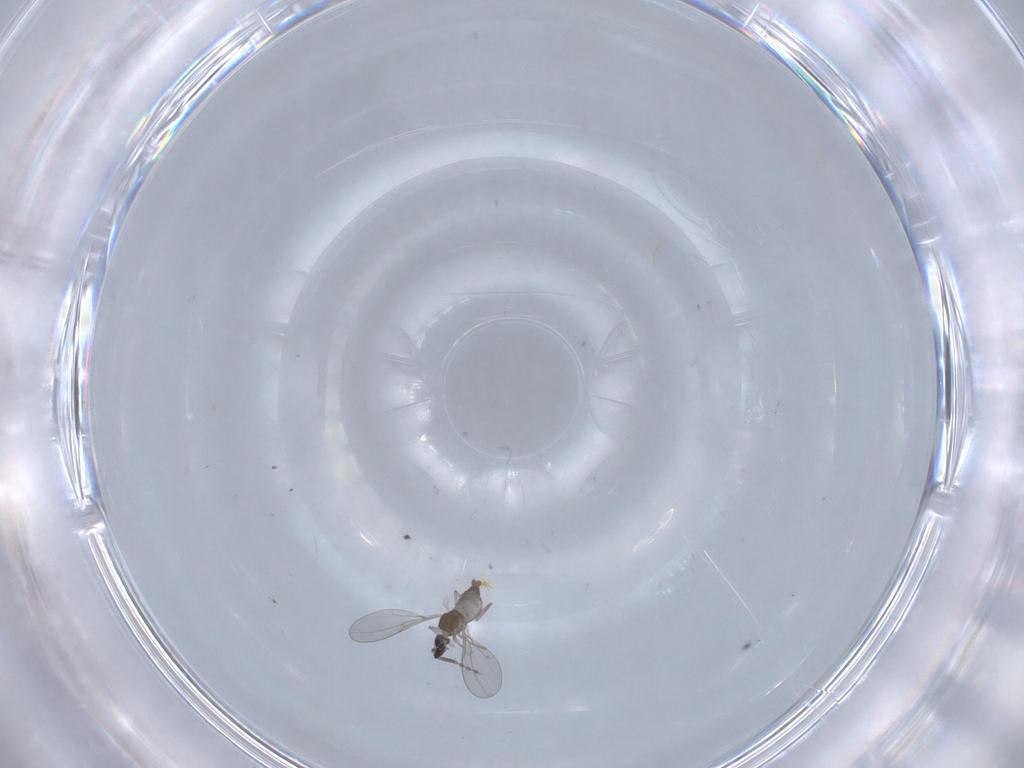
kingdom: Animalia
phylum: Arthropoda
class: Insecta
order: Diptera
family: Cecidomyiidae
